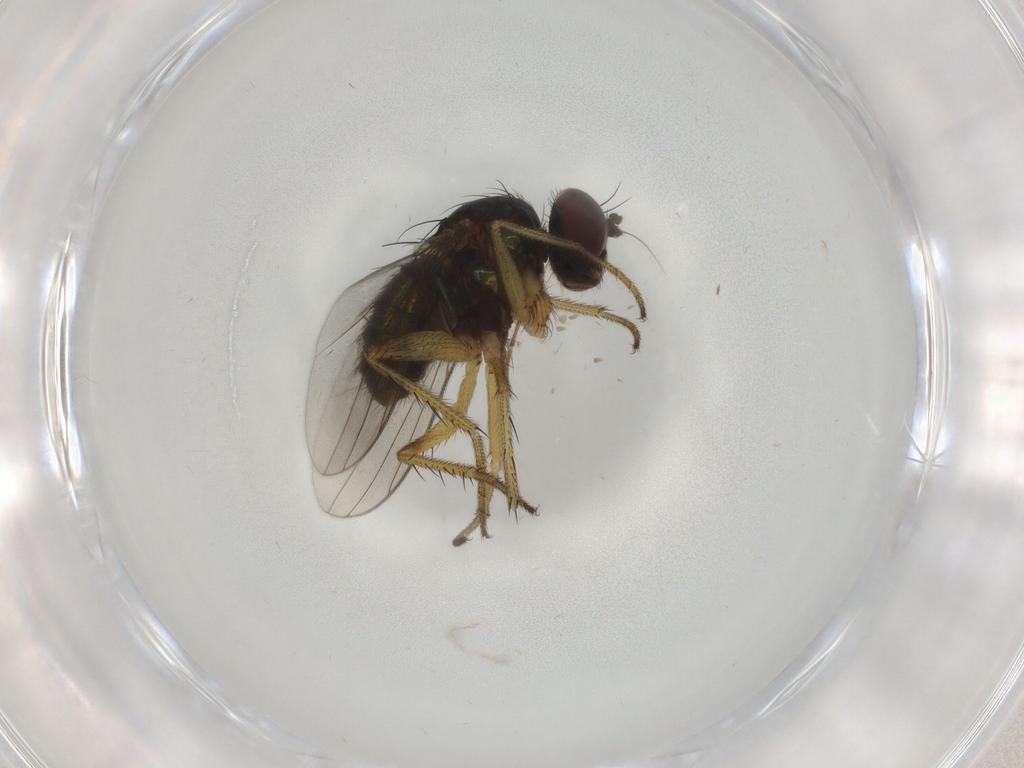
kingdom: Animalia
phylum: Arthropoda
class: Insecta
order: Diptera
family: Dolichopodidae
